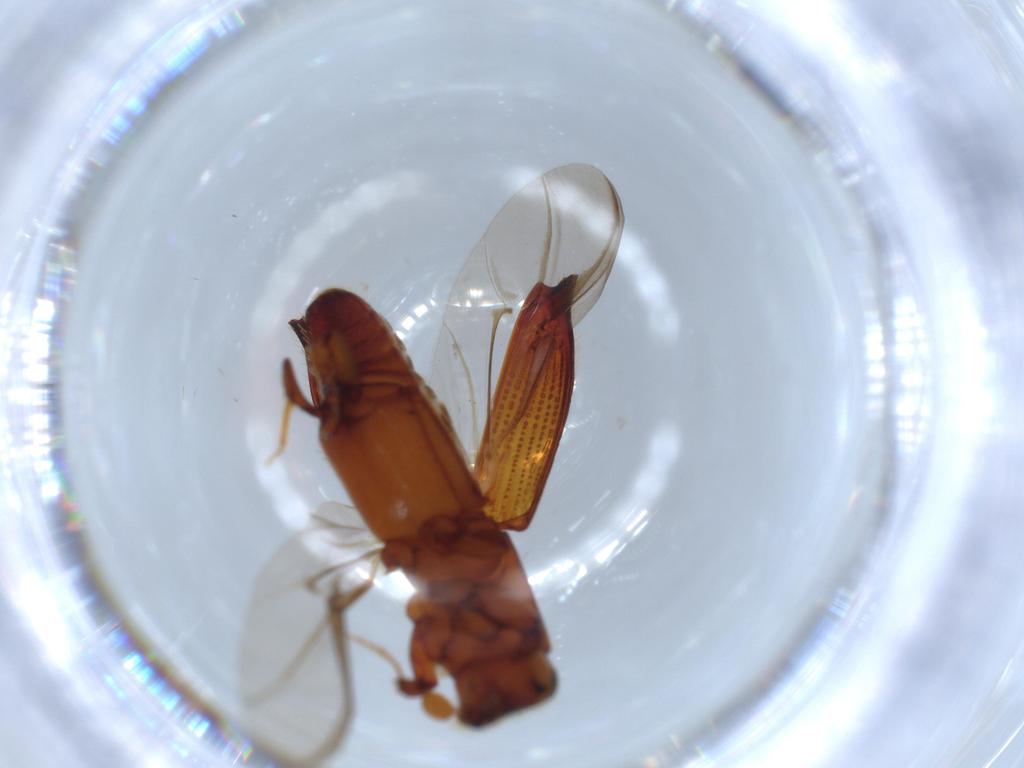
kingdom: Animalia
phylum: Arthropoda
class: Insecta
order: Coleoptera
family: Curculionidae
